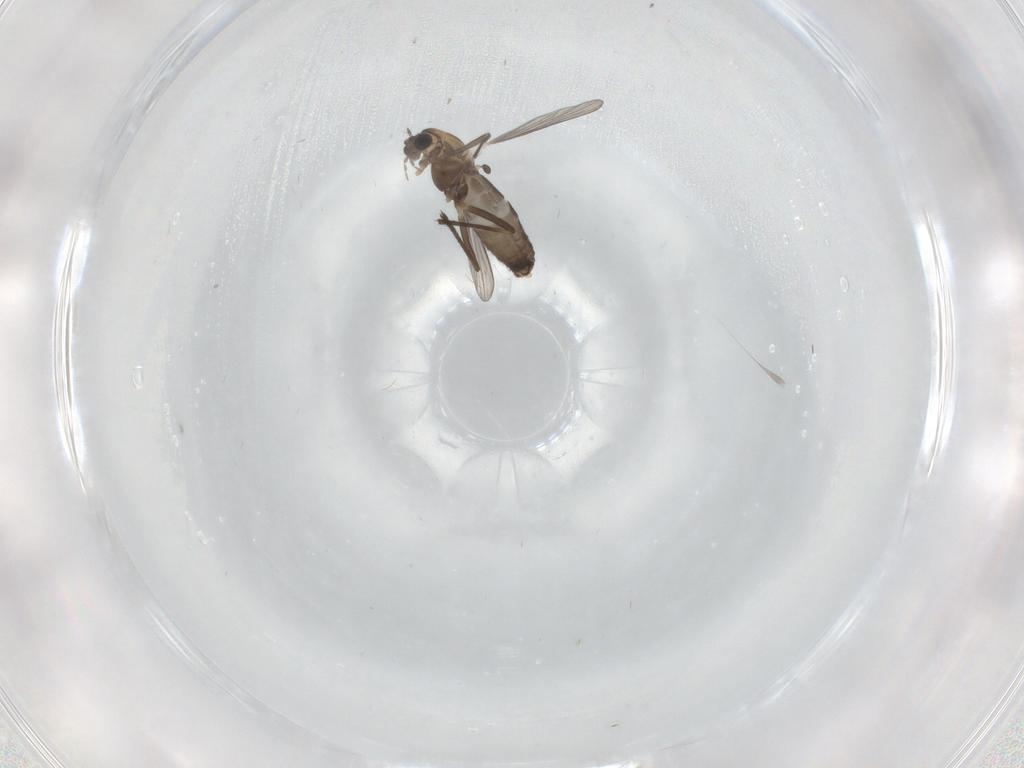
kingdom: Animalia
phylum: Arthropoda
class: Insecta
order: Diptera
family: Chironomidae
